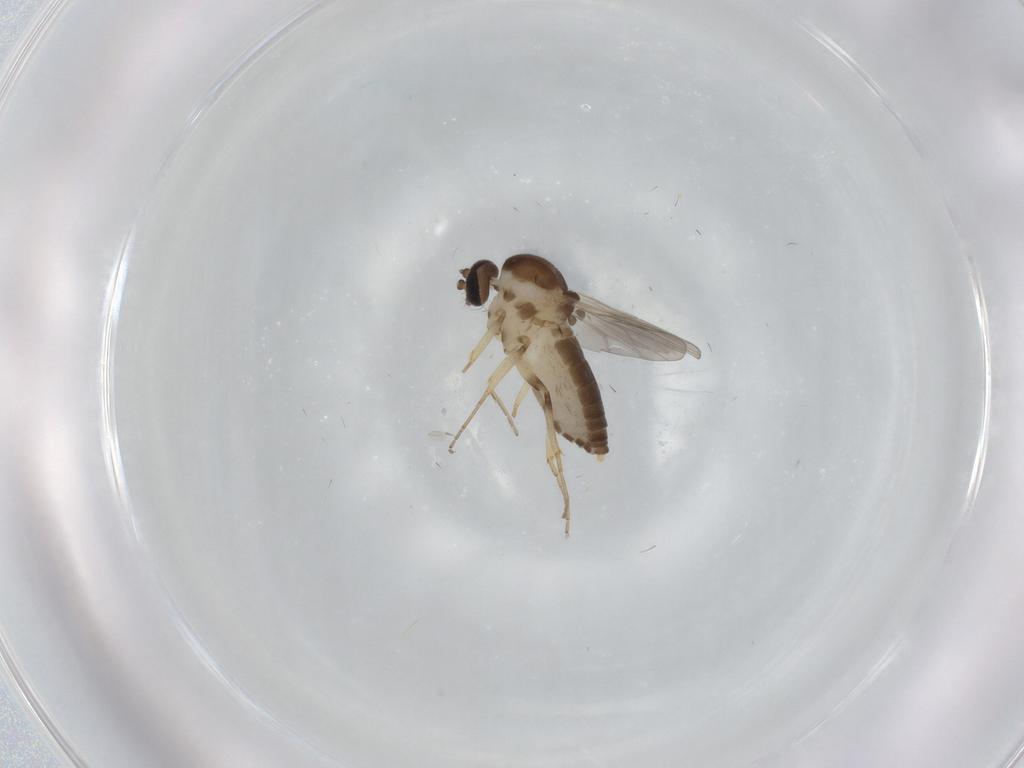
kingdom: Animalia
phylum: Arthropoda
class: Insecta
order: Diptera
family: Ceratopogonidae
